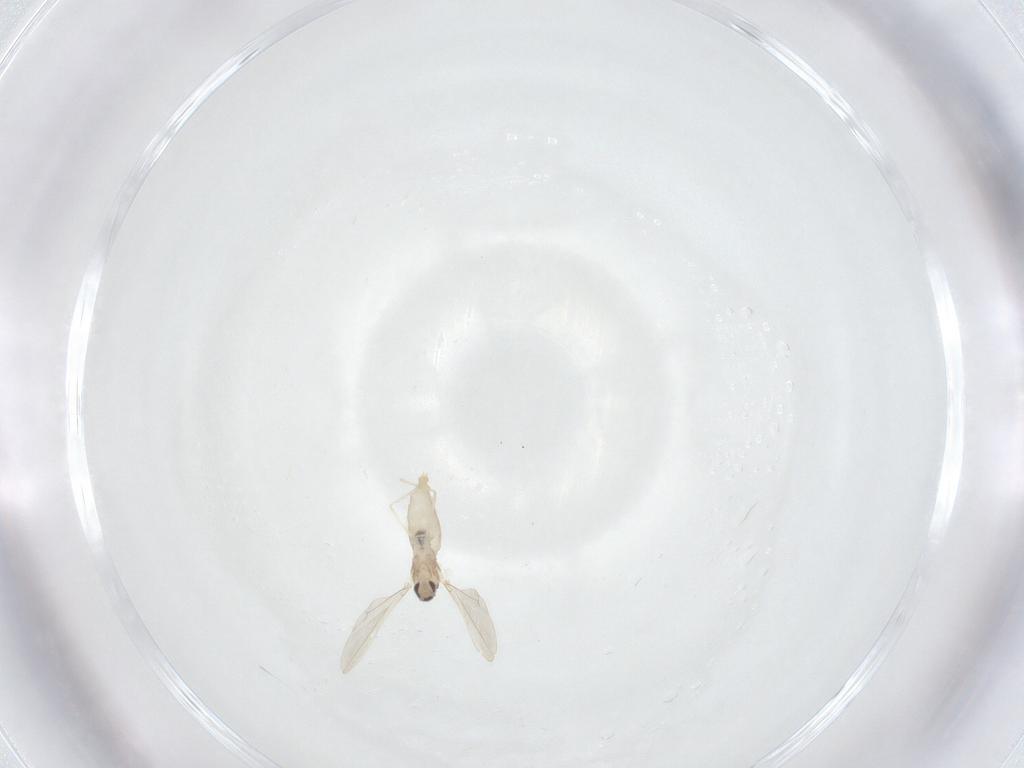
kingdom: Animalia
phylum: Arthropoda
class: Insecta
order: Diptera
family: Cecidomyiidae
